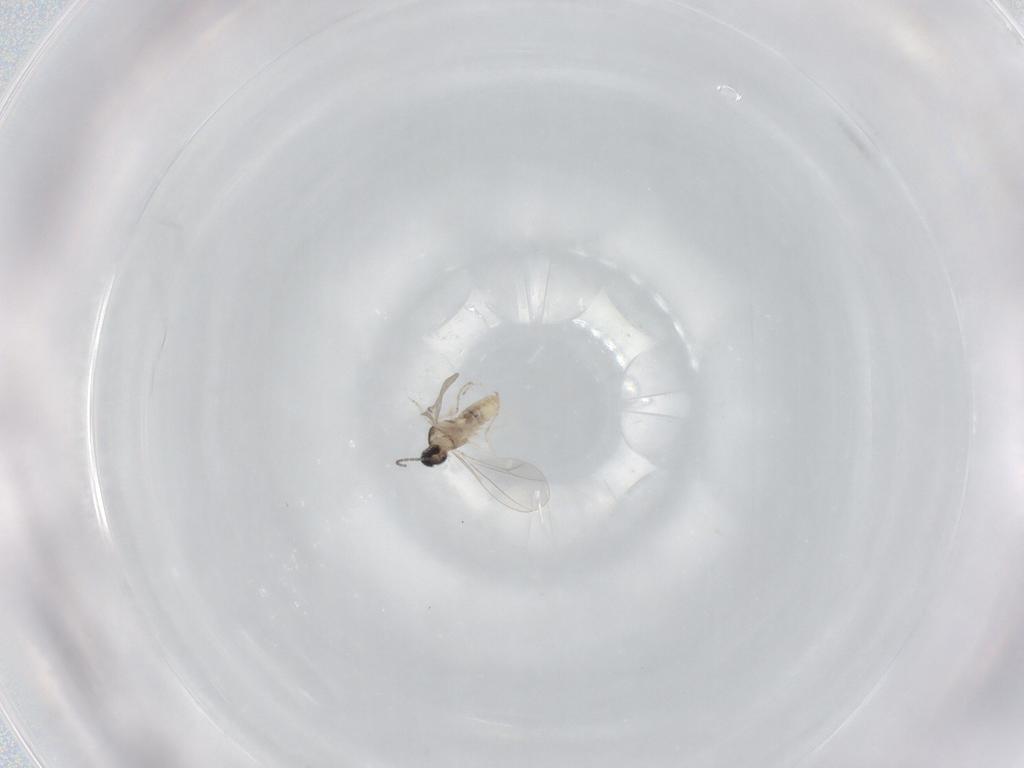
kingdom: Animalia
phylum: Arthropoda
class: Insecta
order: Diptera
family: Cecidomyiidae
